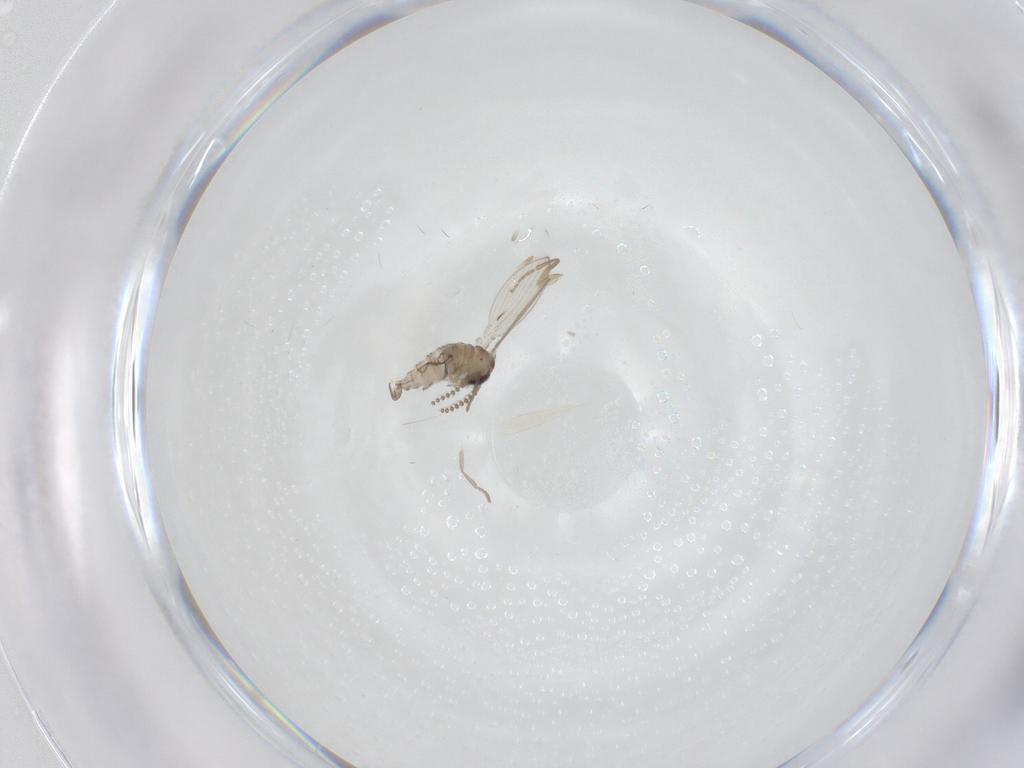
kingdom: Animalia
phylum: Arthropoda
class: Insecta
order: Diptera
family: Psychodidae
